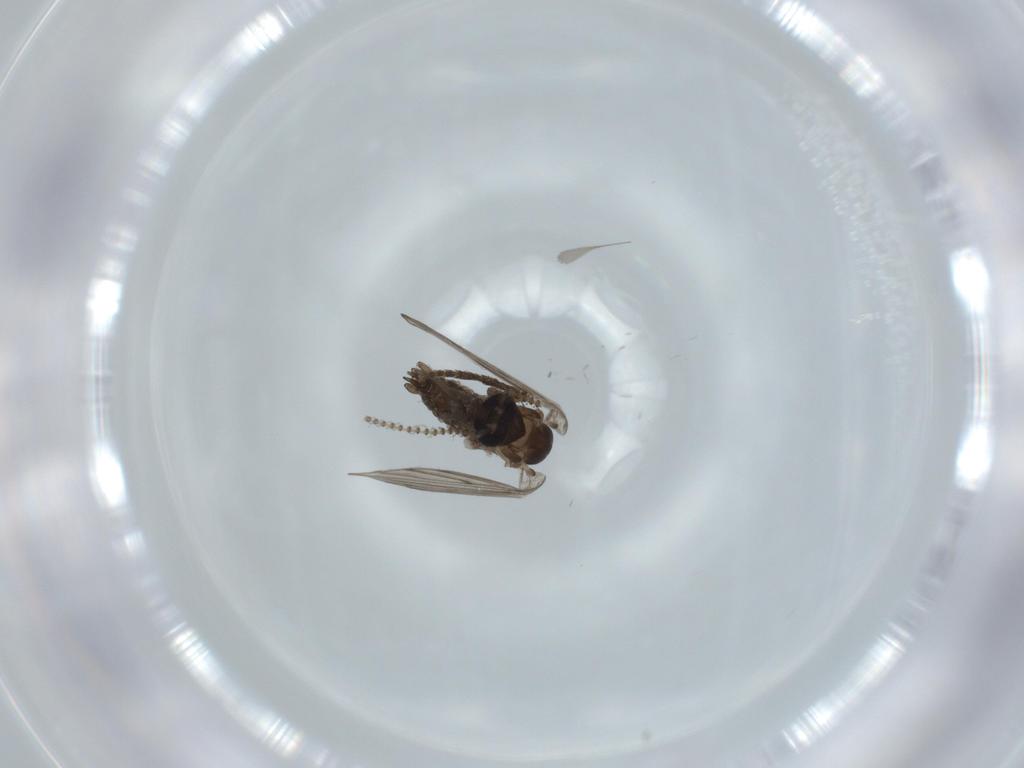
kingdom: Animalia
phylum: Arthropoda
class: Insecta
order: Diptera
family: Psychodidae
